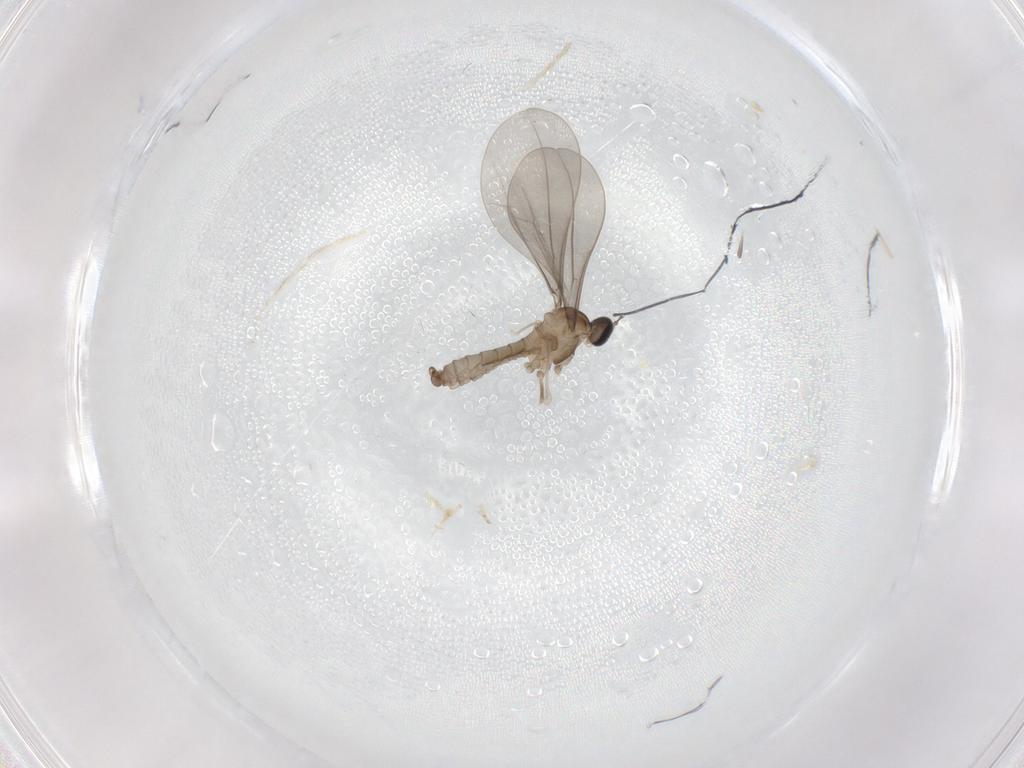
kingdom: Animalia
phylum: Arthropoda
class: Insecta
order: Diptera
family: Cecidomyiidae
